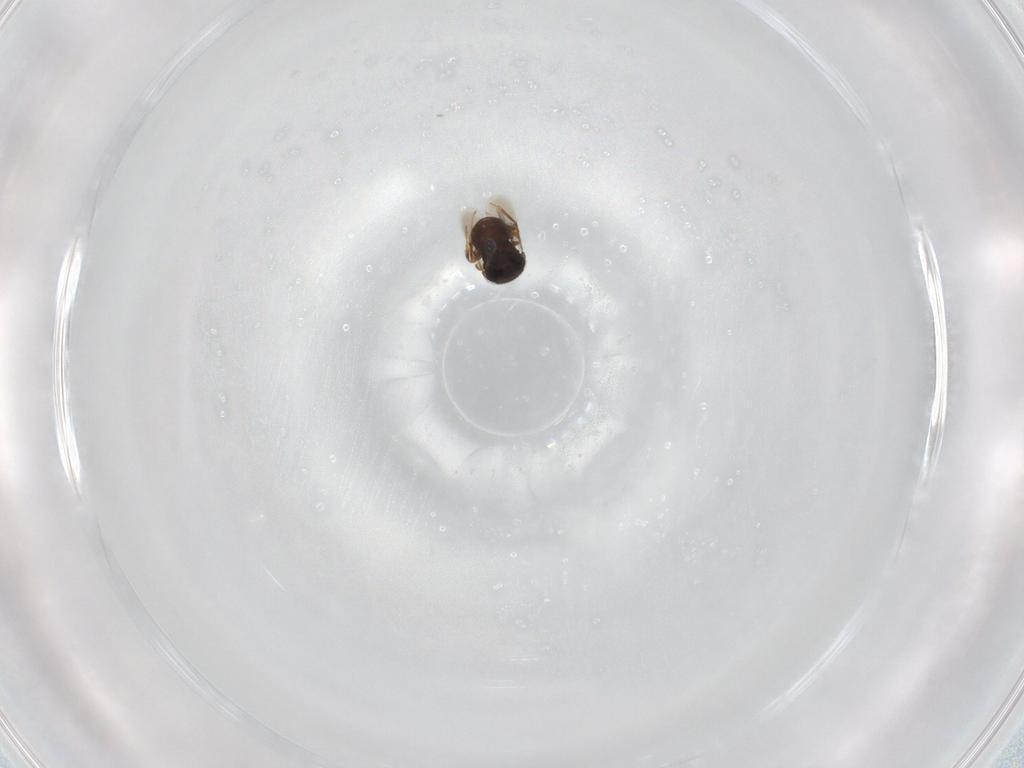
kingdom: Animalia
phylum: Arthropoda
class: Insecta
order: Hymenoptera
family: Scelionidae
